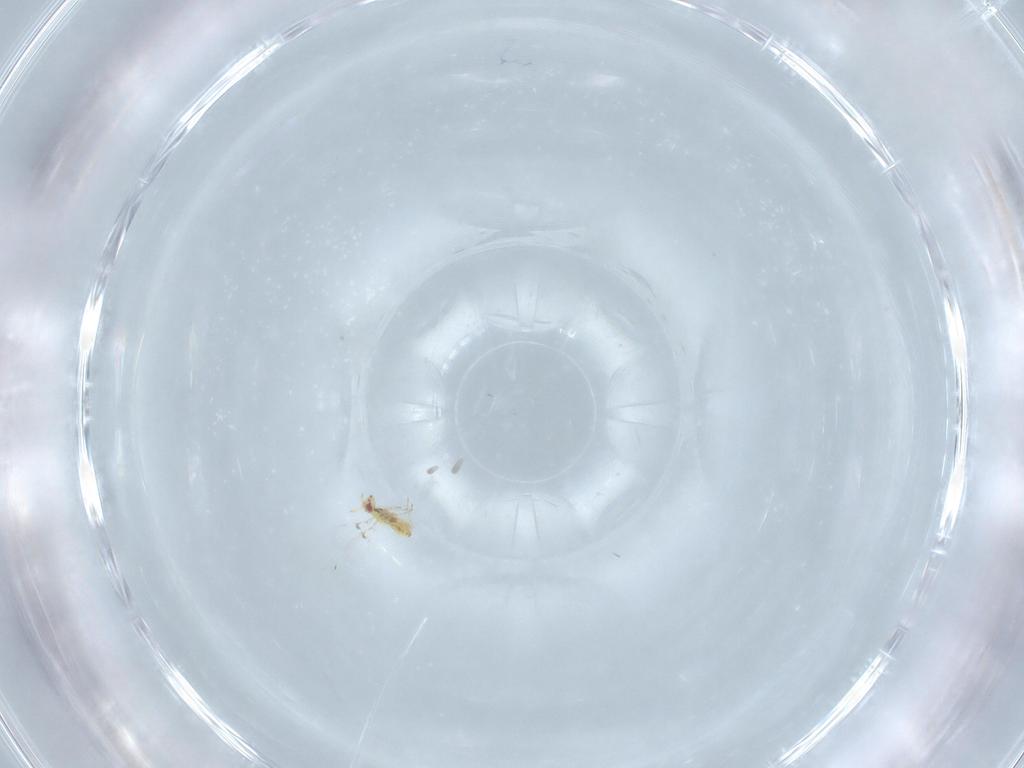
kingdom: Animalia
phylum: Arthropoda
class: Insecta
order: Hymenoptera
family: Trichogrammatidae
